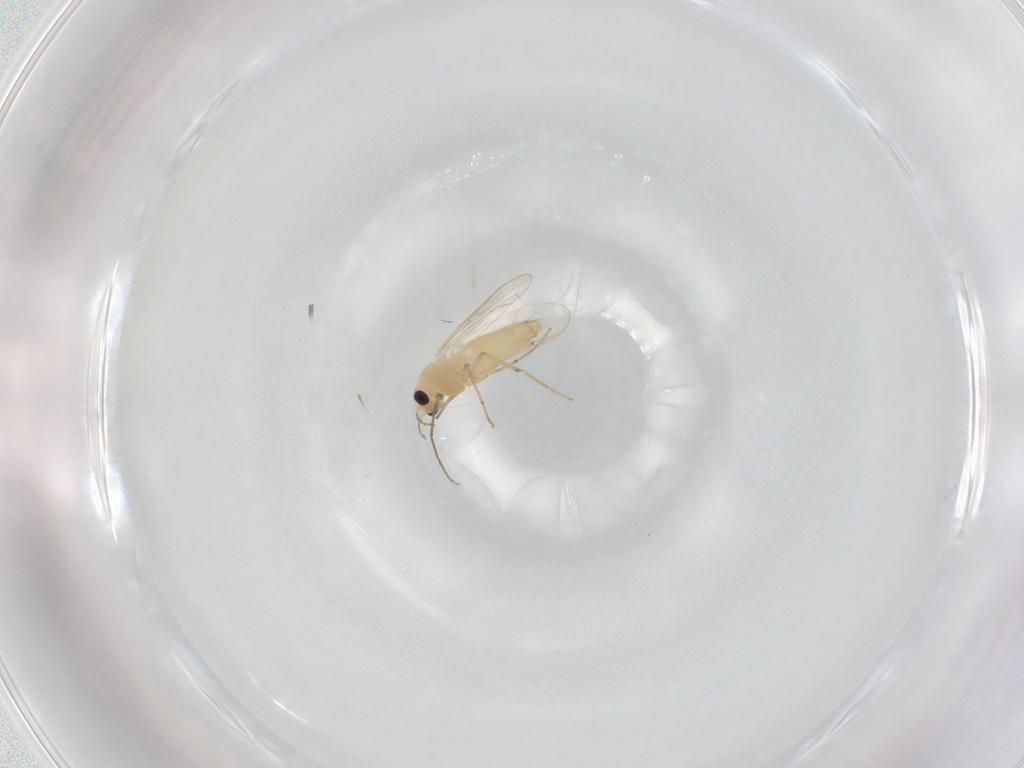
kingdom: Animalia
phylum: Arthropoda
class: Insecta
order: Diptera
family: Chironomidae
